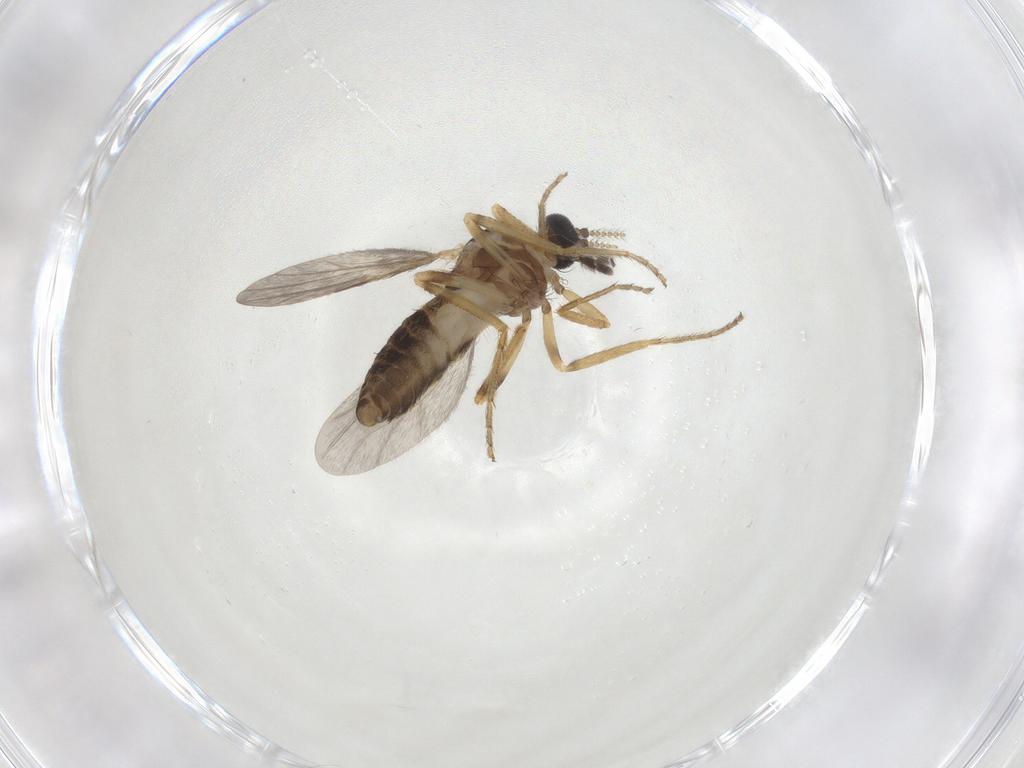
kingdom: Animalia
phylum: Arthropoda
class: Insecta
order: Diptera
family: Ceratopogonidae
